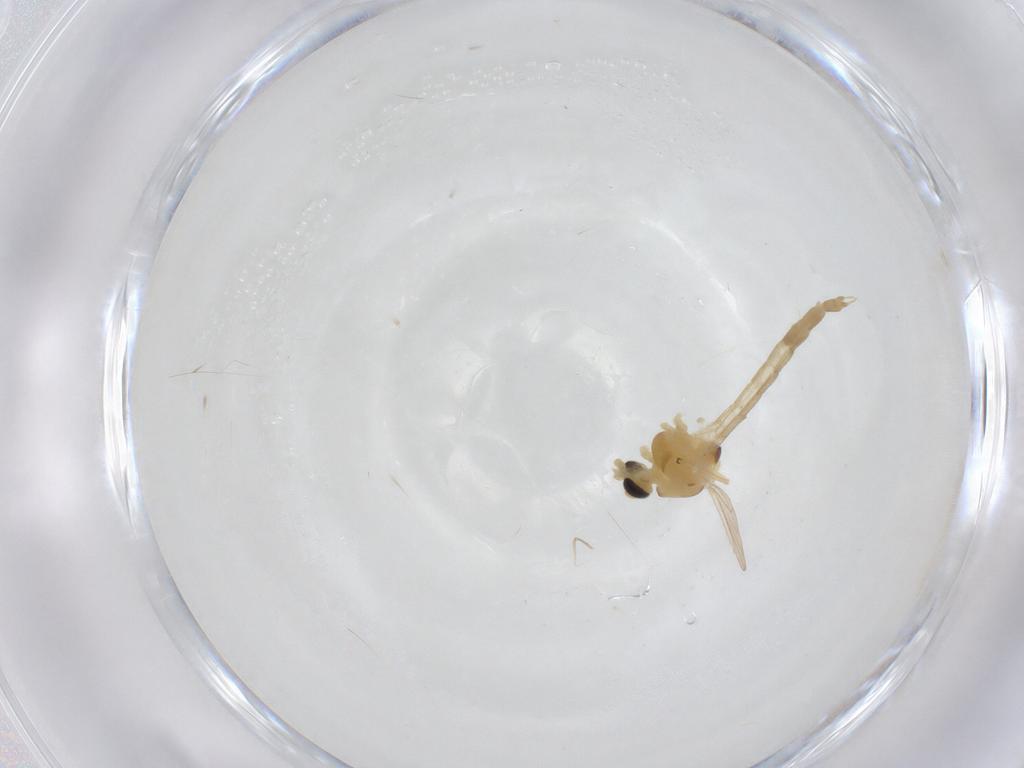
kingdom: Animalia
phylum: Arthropoda
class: Insecta
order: Diptera
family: Chironomidae
